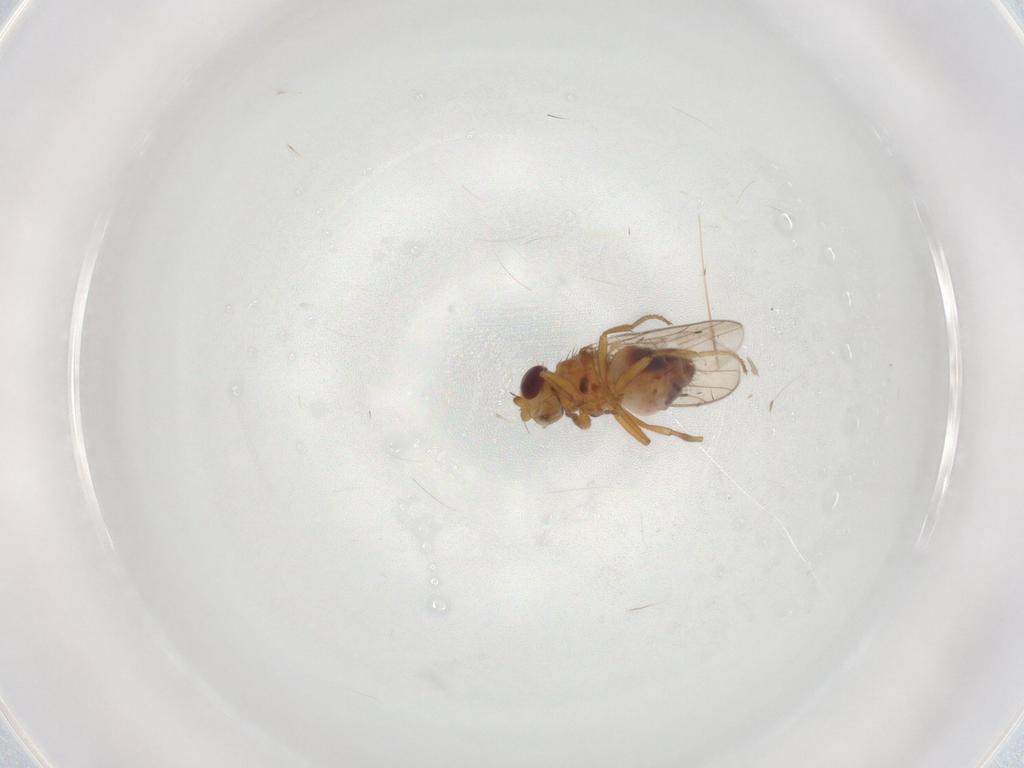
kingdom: Animalia
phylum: Arthropoda
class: Insecta
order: Diptera
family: Chloropidae
